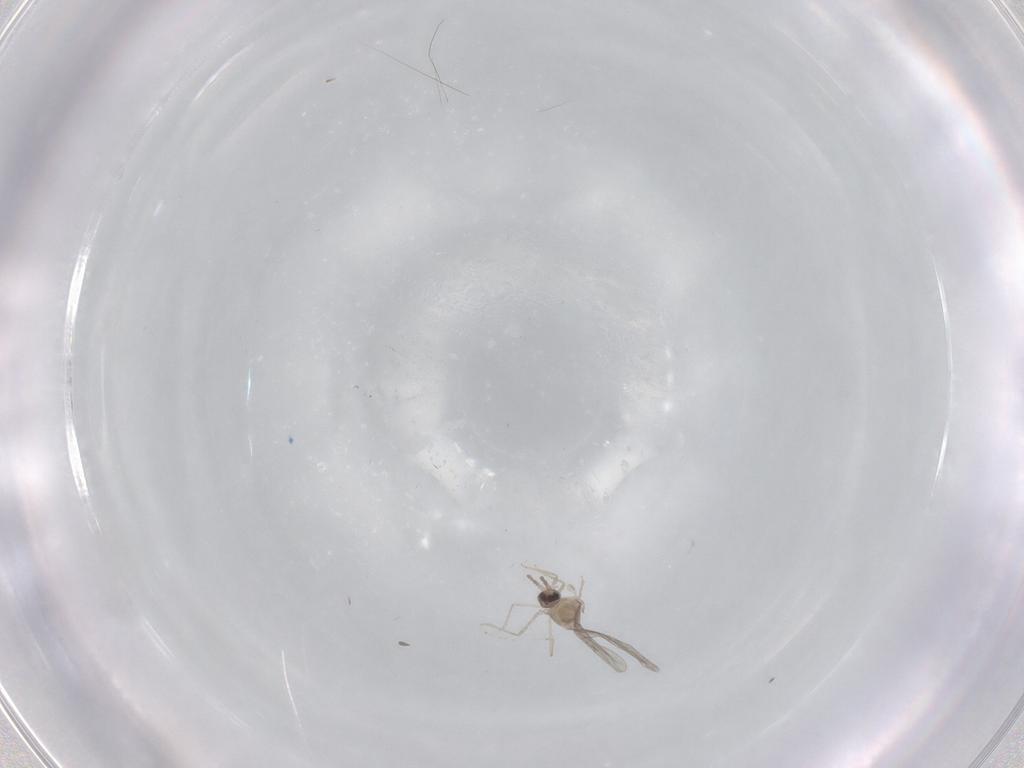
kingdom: Animalia
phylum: Arthropoda
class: Insecta
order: Diptera
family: Cecidomyiidae
